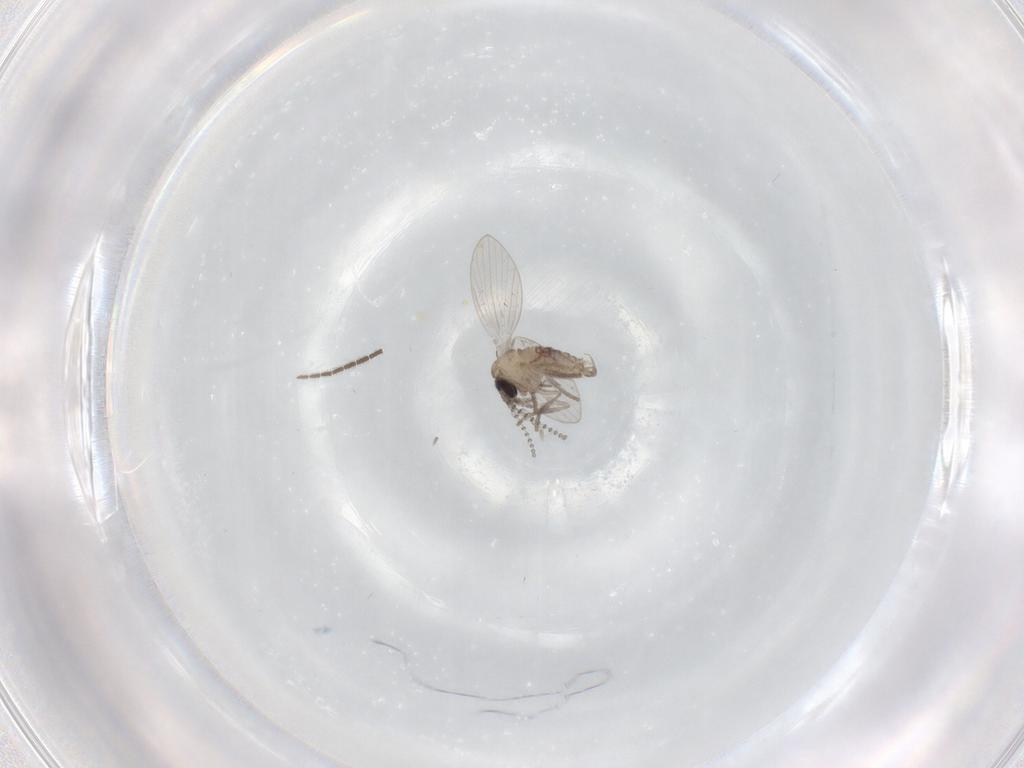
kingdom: Animalia
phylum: Arthropoda
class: Insecta
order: Diptera
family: Psychodidae
